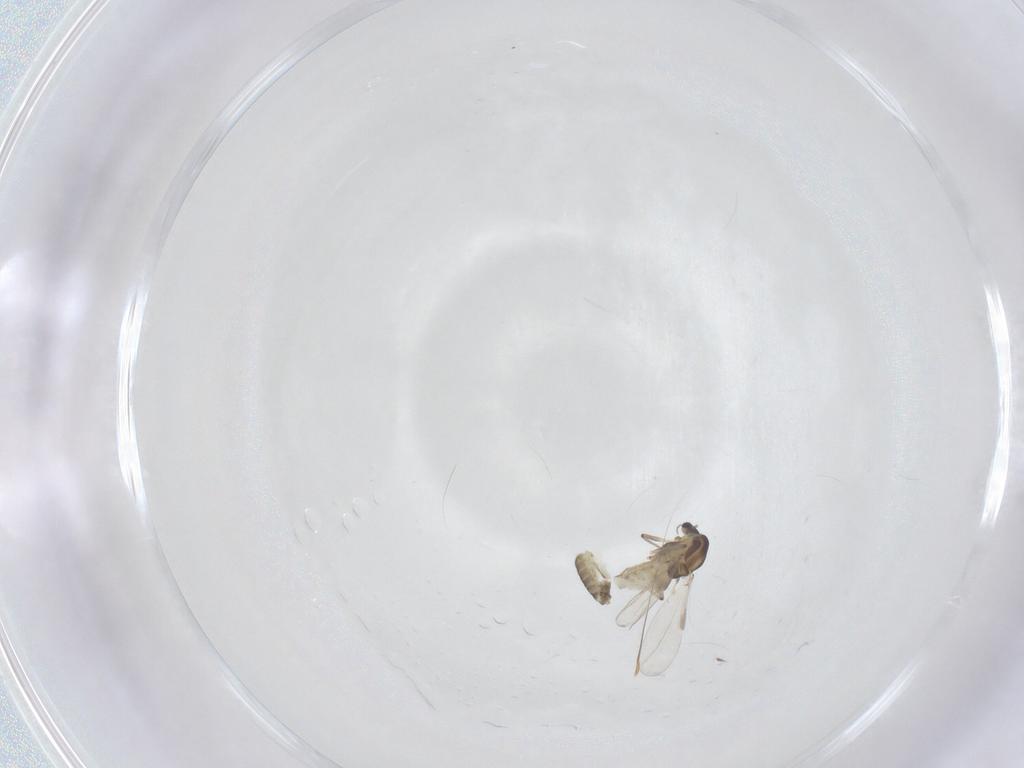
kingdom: Animalia
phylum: Arthropoda
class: Insecta
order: Diptera
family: Chironomidae
